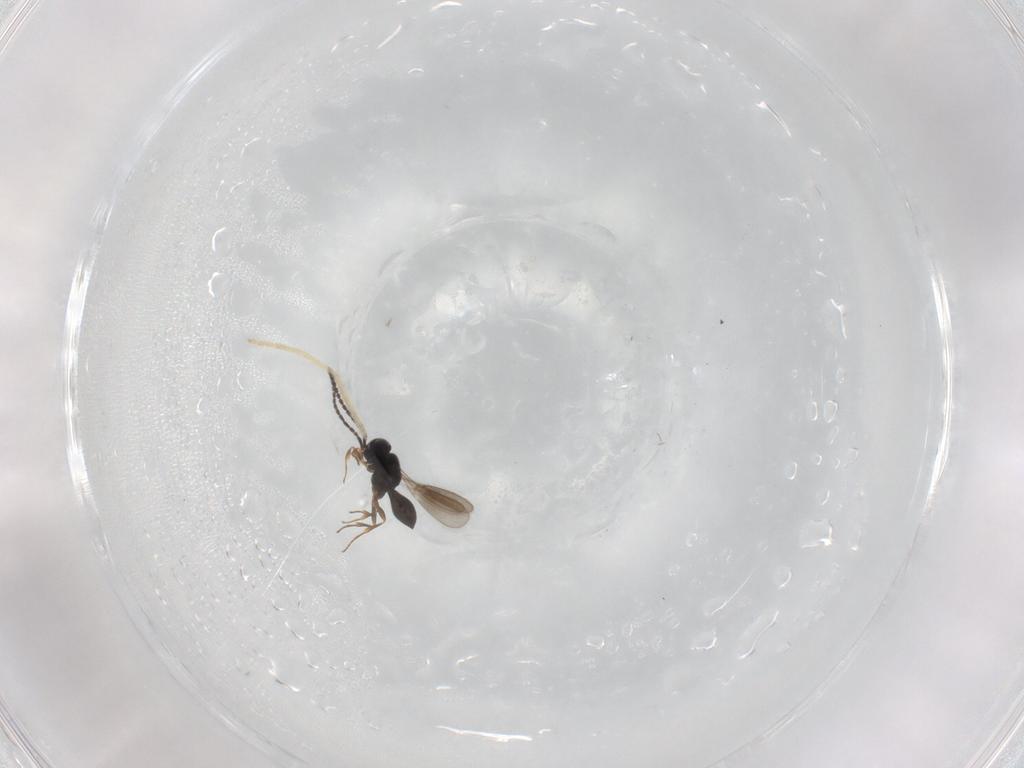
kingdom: Animalia
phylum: Arthropoda
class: Insecta
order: Hymenoptera
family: Scelionidae
